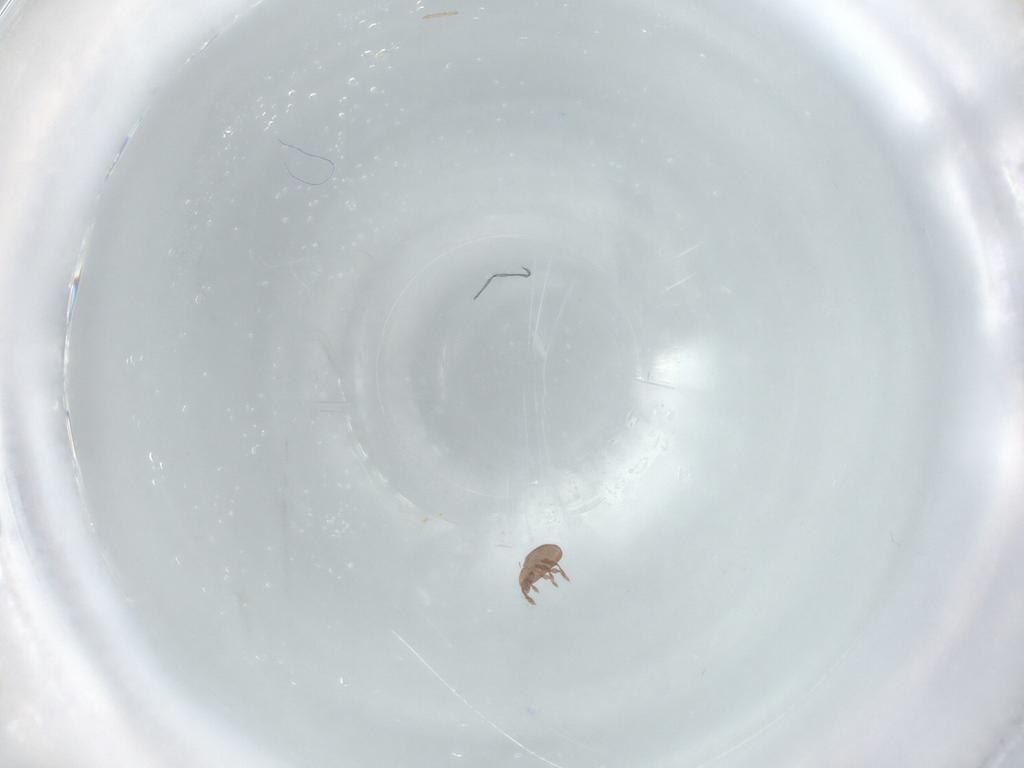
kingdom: Animalia
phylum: Arthropoda
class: Arachnida
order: Sarcoptiformes
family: Eremaeidae
